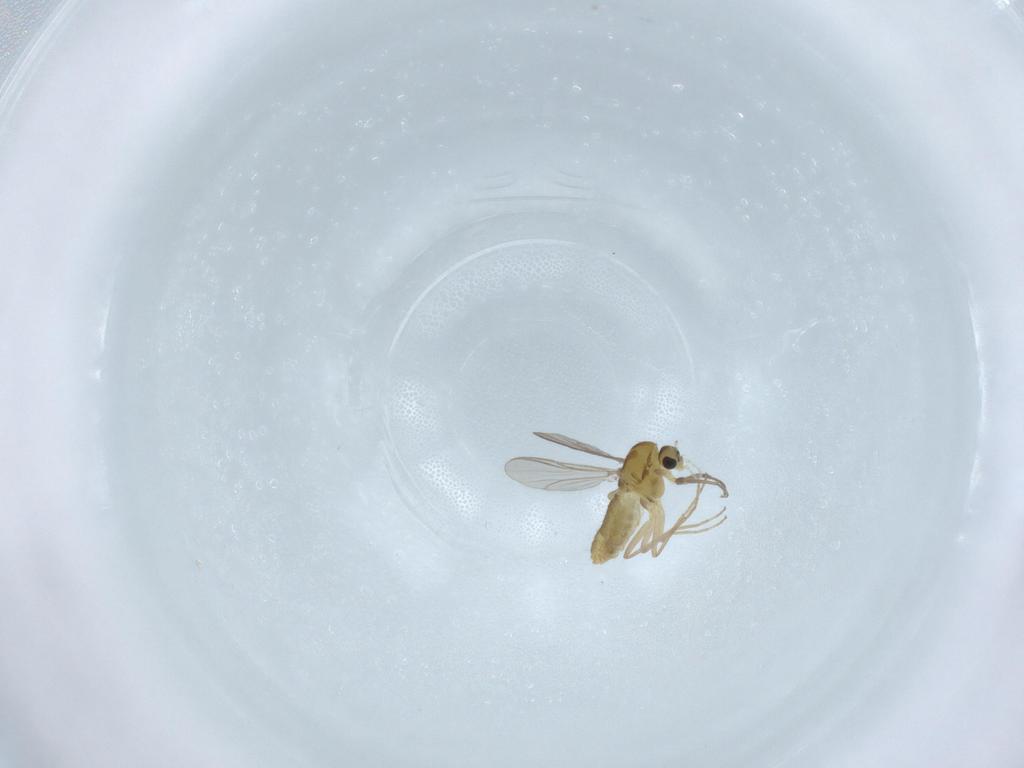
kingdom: Animalia
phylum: Arthropoda
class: Insecta
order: Diptera
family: Chironomidae
